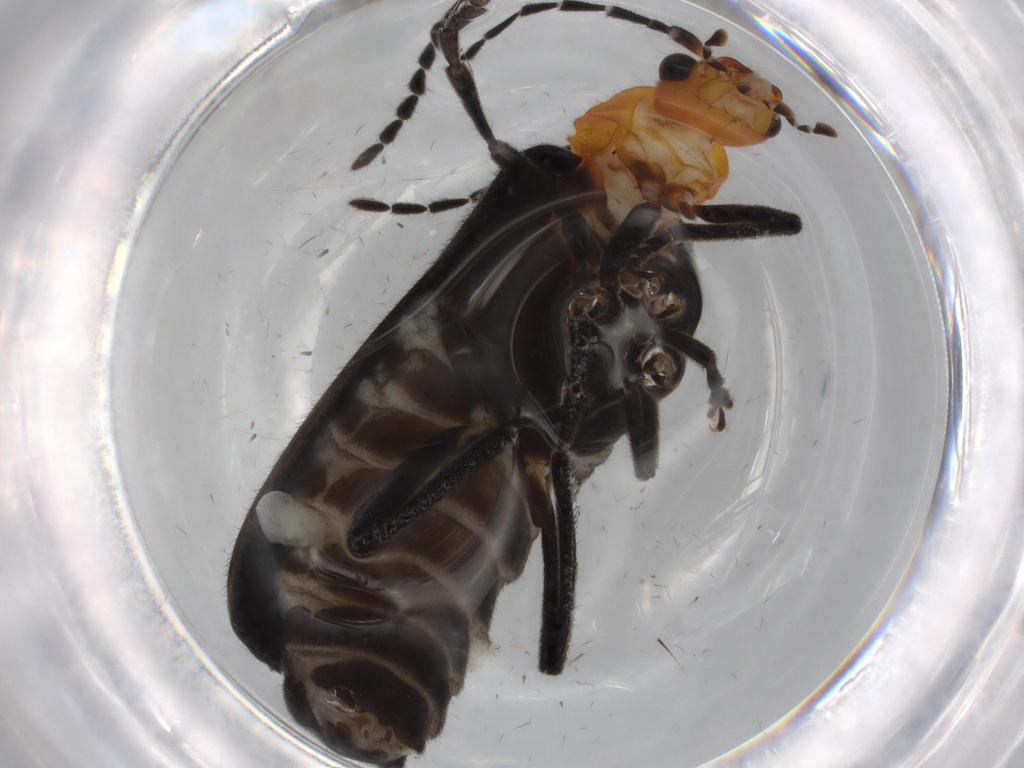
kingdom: Animalia
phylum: Arthropoda
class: Insecta
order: Coleoptera
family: Cantharidae
